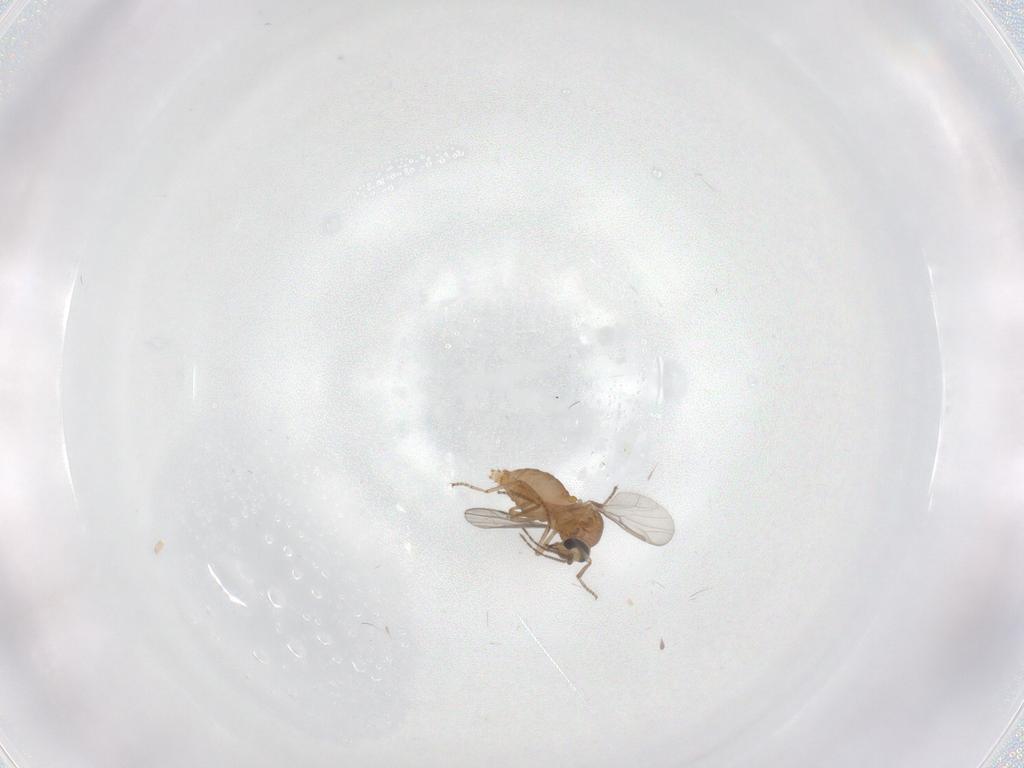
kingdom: Animalia
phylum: Arthropoda
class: Insecta
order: Diptera
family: Ceratopogonidae
